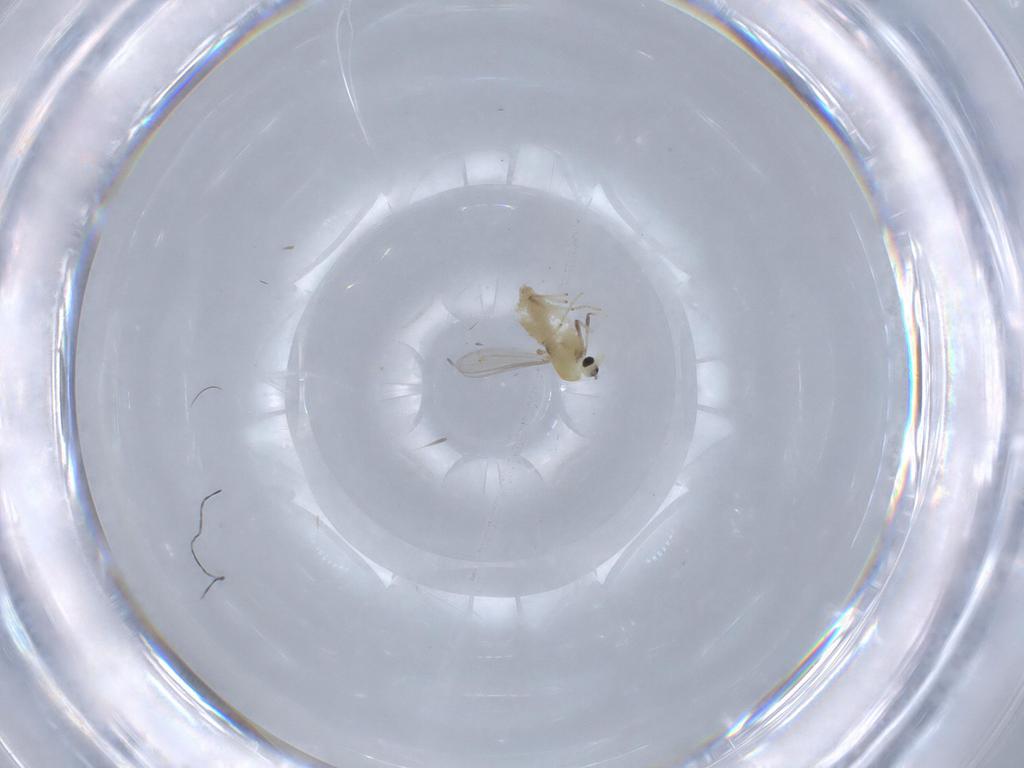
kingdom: Animalia
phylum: Arthropoda
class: Insecta
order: Diptera
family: Chironomidae
